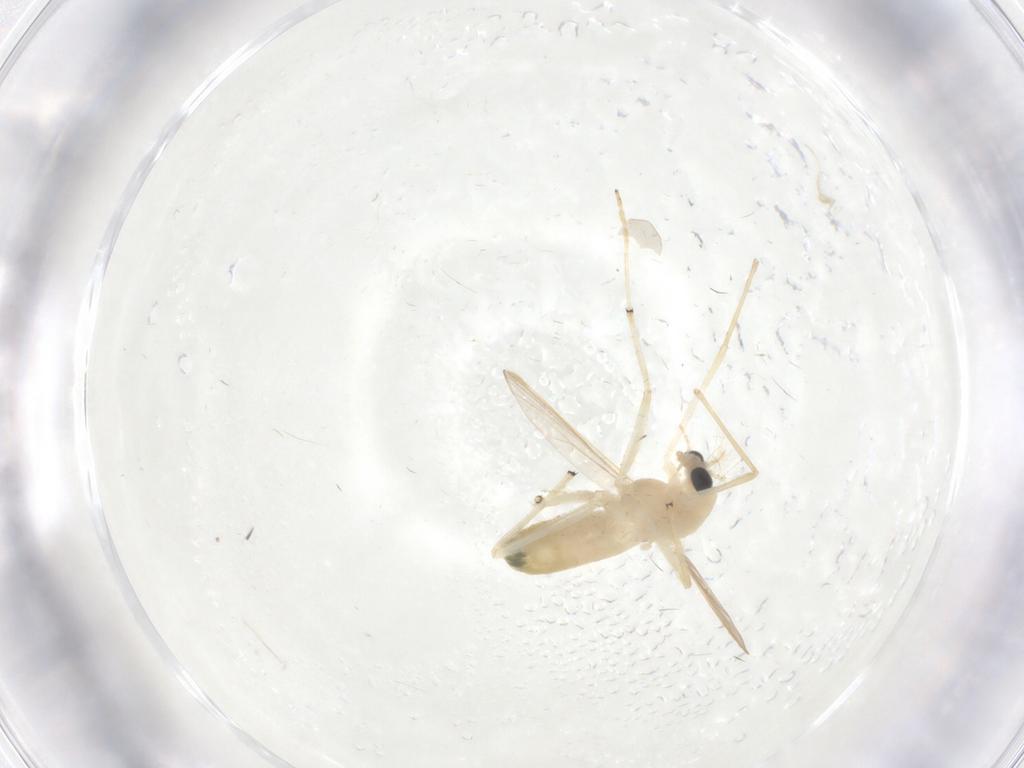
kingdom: Animalia
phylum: Arthropoda
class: Insecta
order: Diptera
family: Chironomidae
